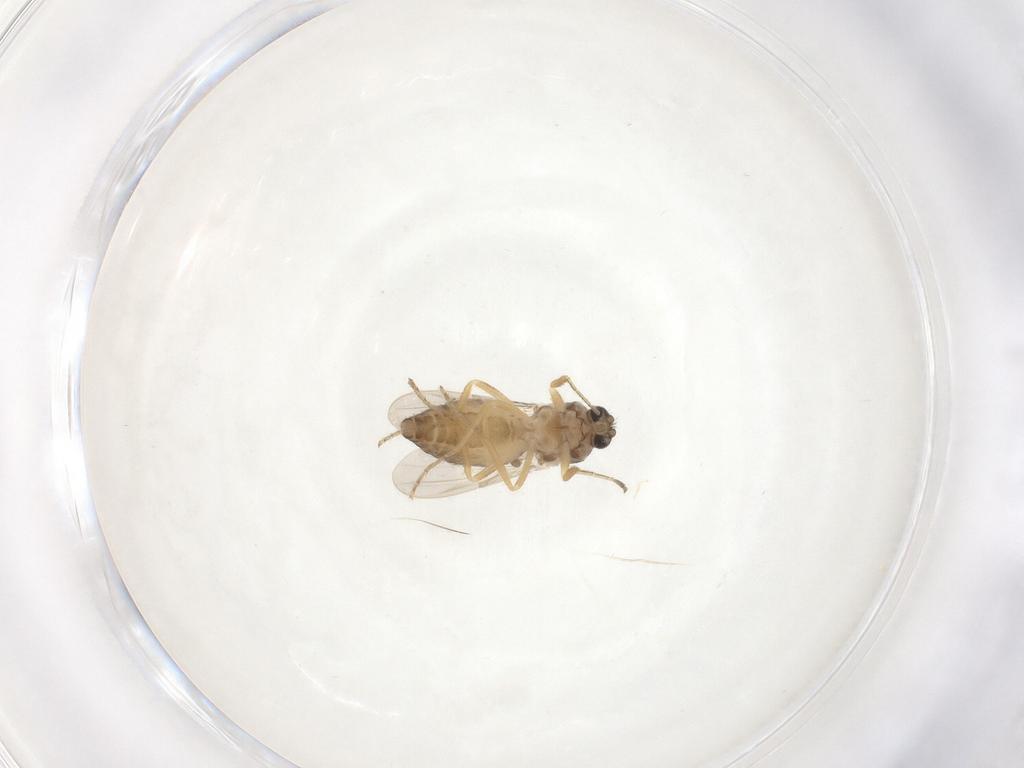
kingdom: Animalia
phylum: Arthropoda
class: Insecta
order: Diptera
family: Ceratopogonidae
